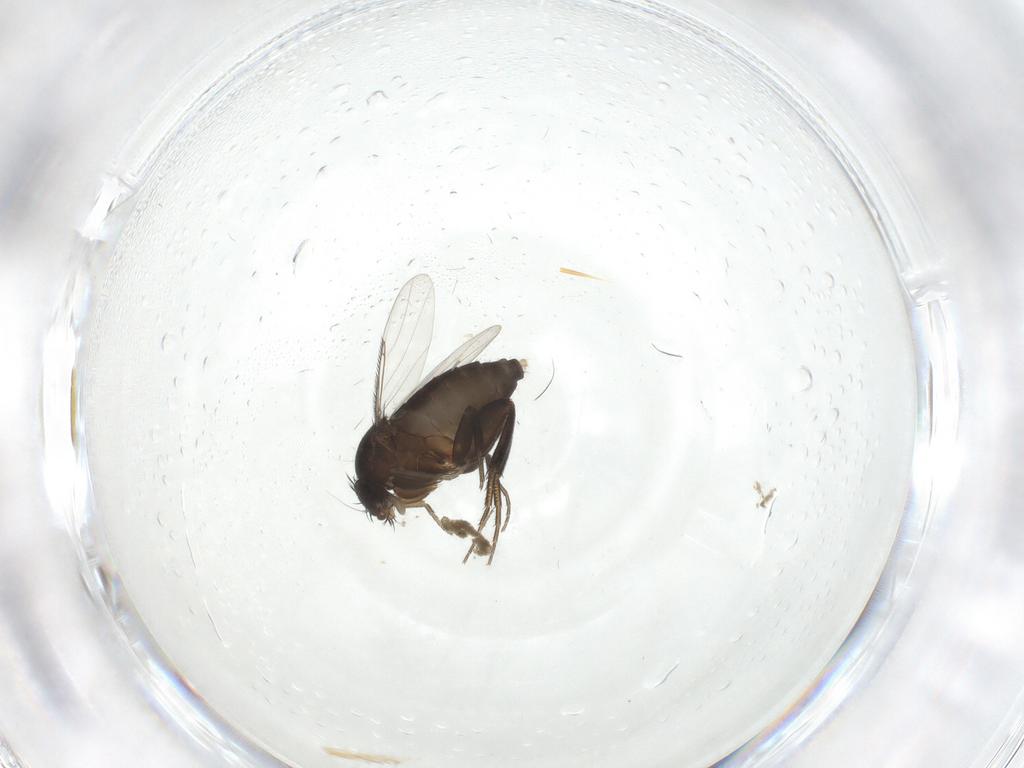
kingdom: Animalia
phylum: Arthropoda
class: Insecta
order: Diptera
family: Phoridae
